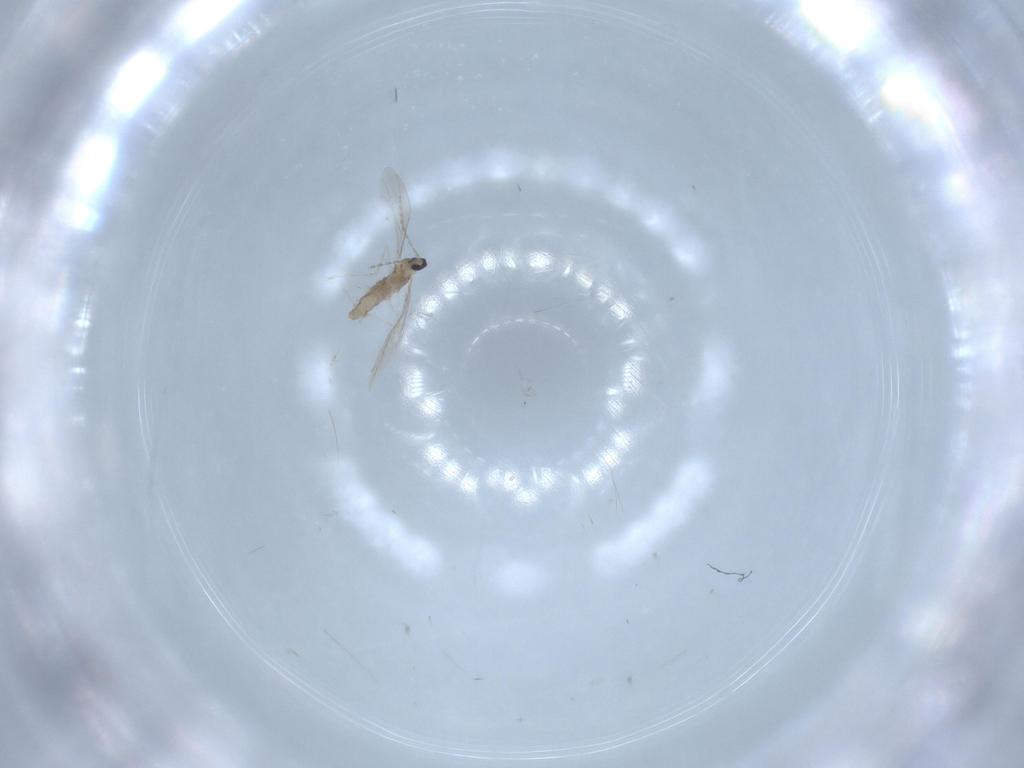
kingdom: Animalia
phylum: Arthropoda
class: Insecta
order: Diptera
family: Cecidomyiidae
